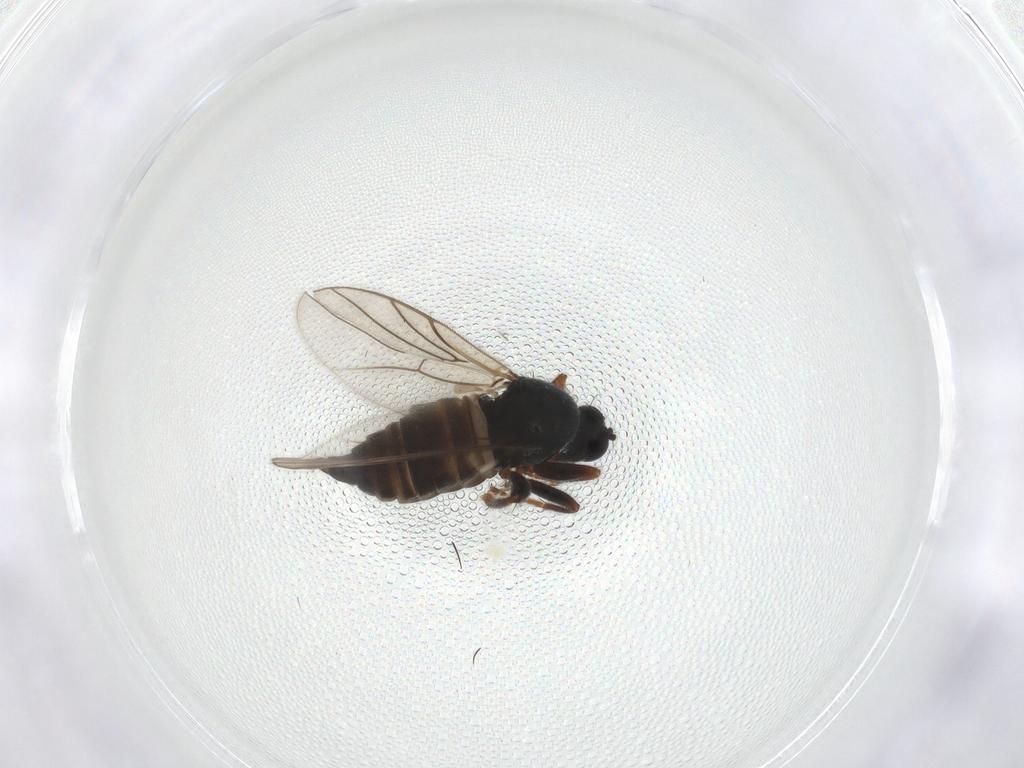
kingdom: Animalia
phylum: Arthropoda
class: Insecta
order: Diptera
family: Hybotidae
